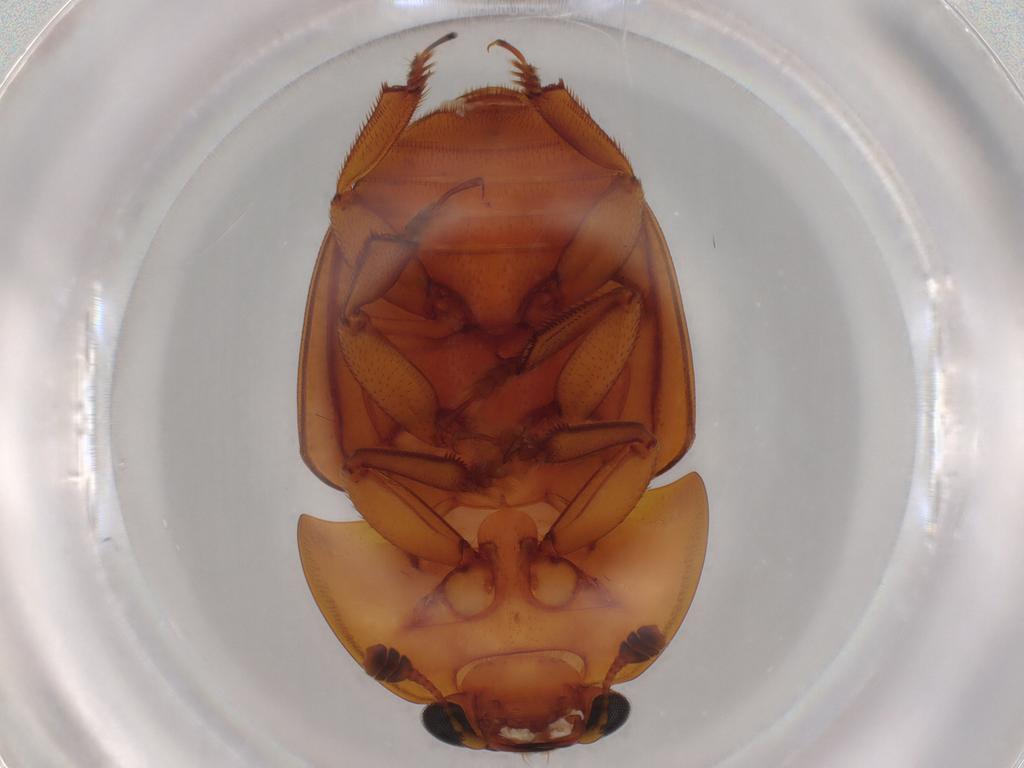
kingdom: Animalia
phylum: Arthropoda
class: Insecta
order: Coleoptera
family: Nitidulidae
